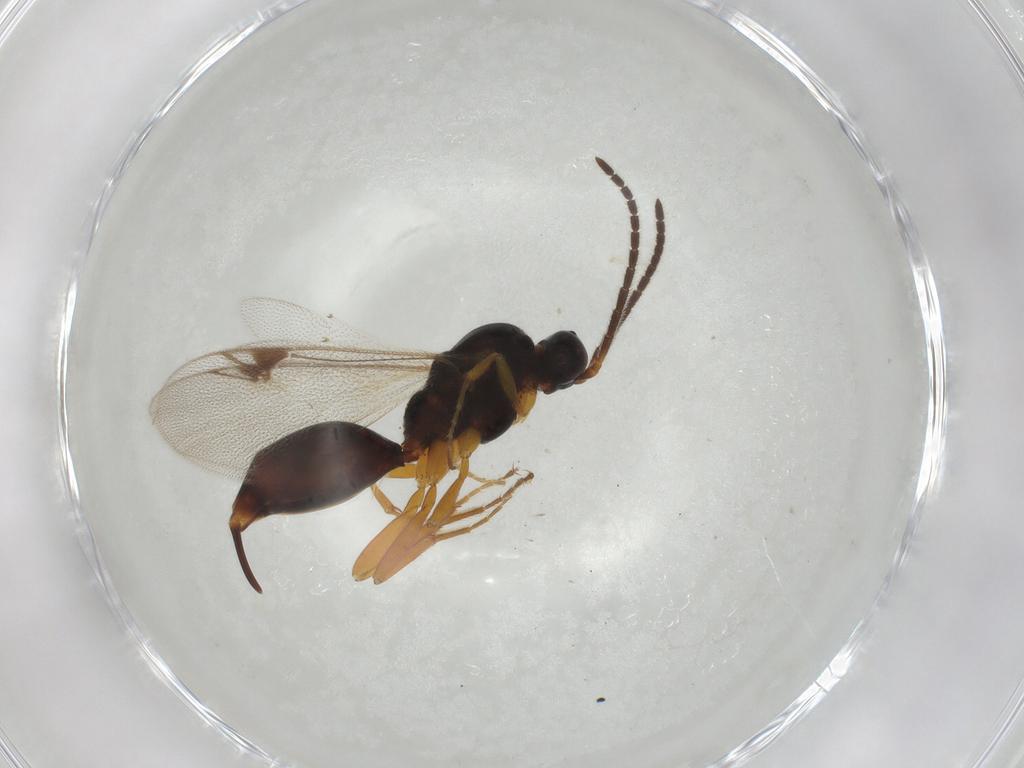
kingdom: Animalia
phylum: Arthropoda
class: Insecta
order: Hymenoptera
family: Proctotrupidae
